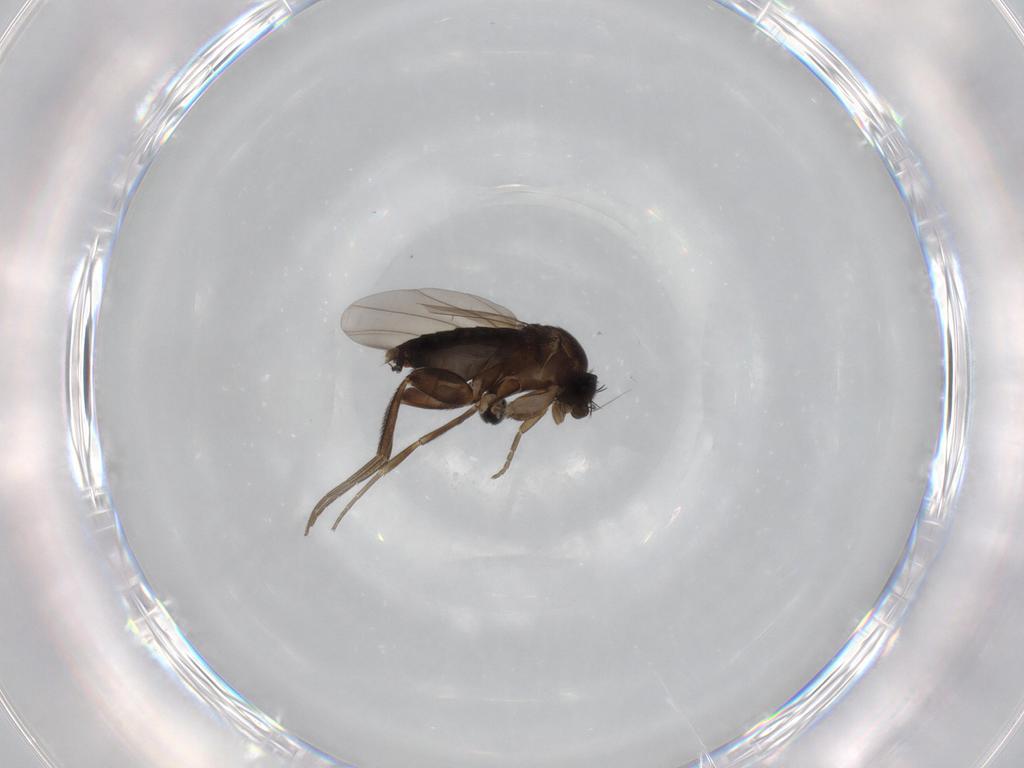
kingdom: Animalia
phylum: Arthropoda
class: Insecta
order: Diptera
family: Phoridae
